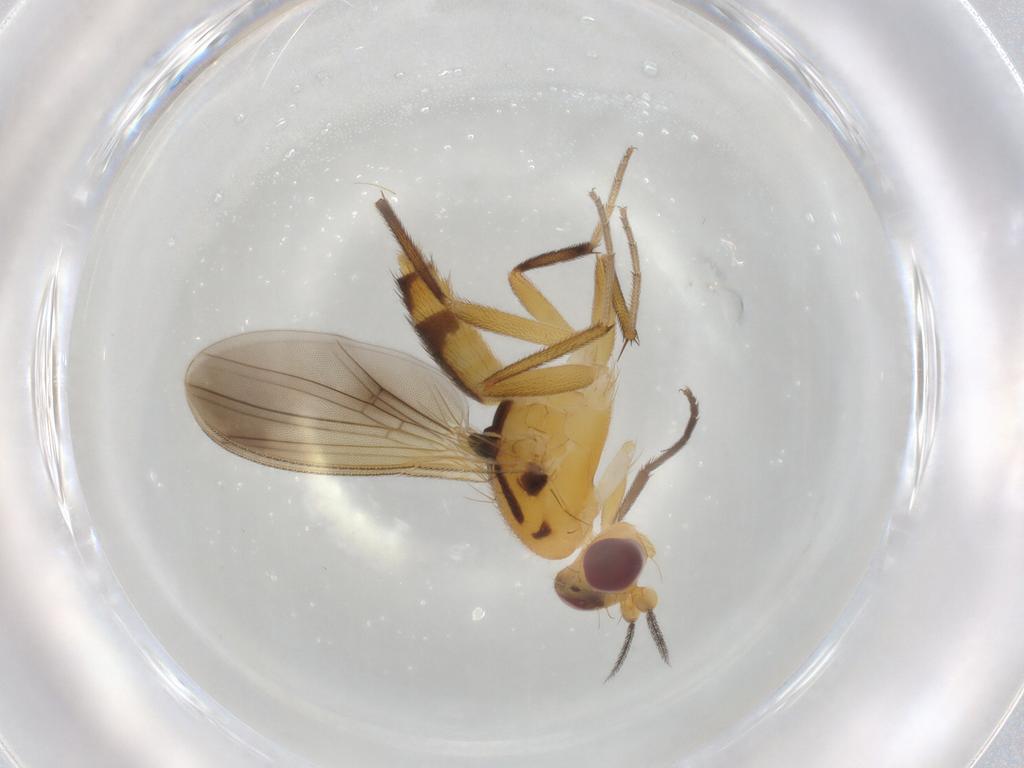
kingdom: Animalia
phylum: Arthropoda
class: Insecta
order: Diptera
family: Clusiidae
